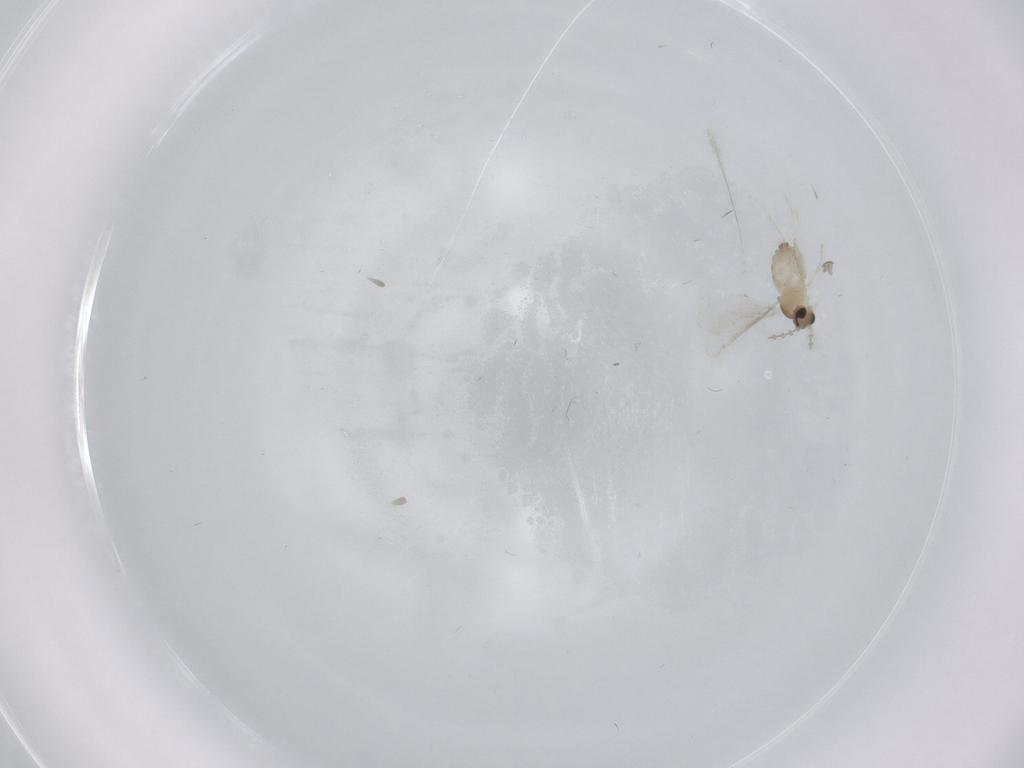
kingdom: Animalia
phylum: Arthropoda
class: Insecta
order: Diptera
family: Cecidomyiidae
